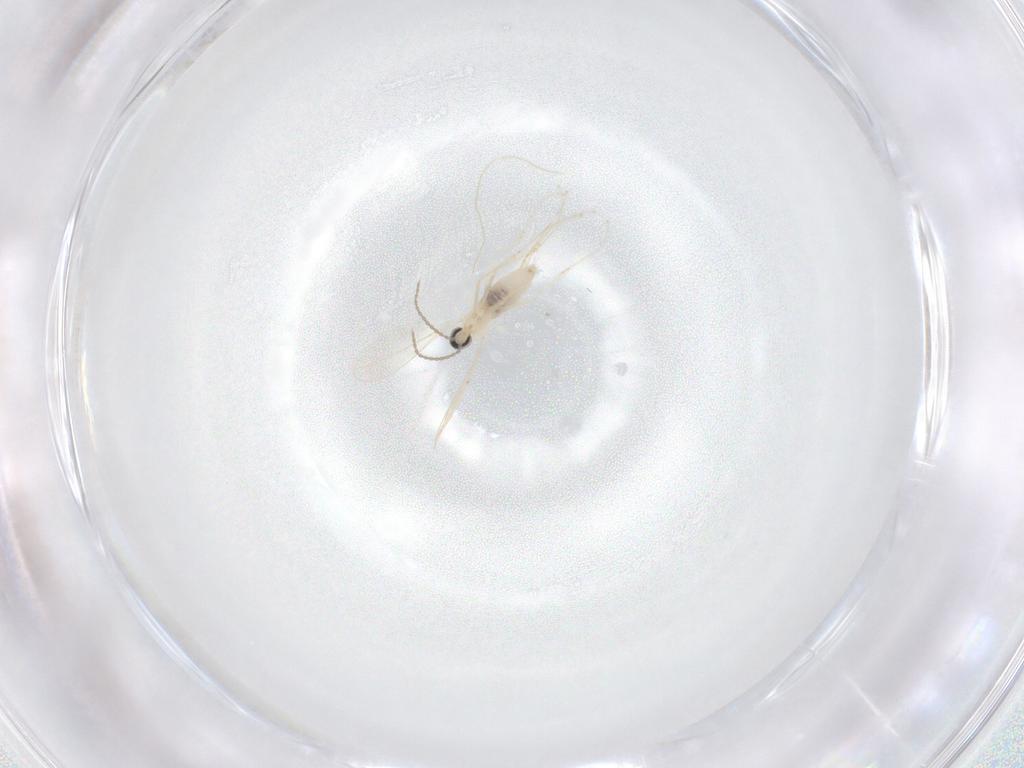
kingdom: Animalia
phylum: Arthropoda
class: Insecta
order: Diptera
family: Cecidomyiidae
